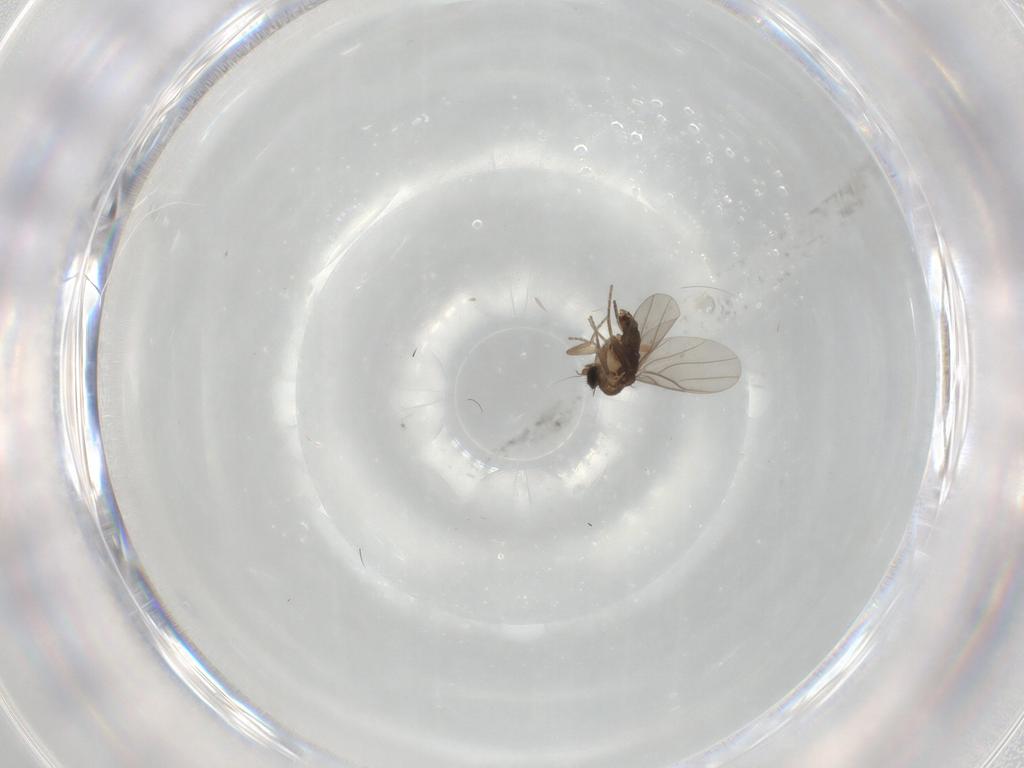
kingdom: Animalia
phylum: Arthropoda
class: Insecta
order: Diptera
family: Phoridae
